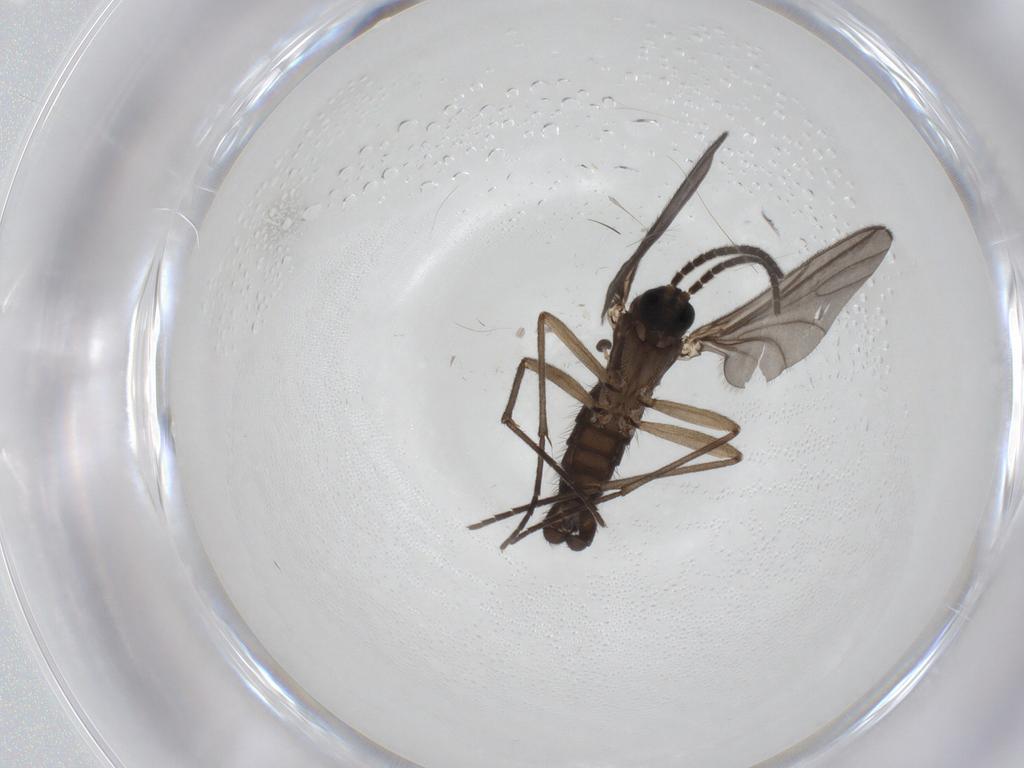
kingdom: Animalia
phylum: Arthropoda
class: Insecta
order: Diptera
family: Sciaridae
